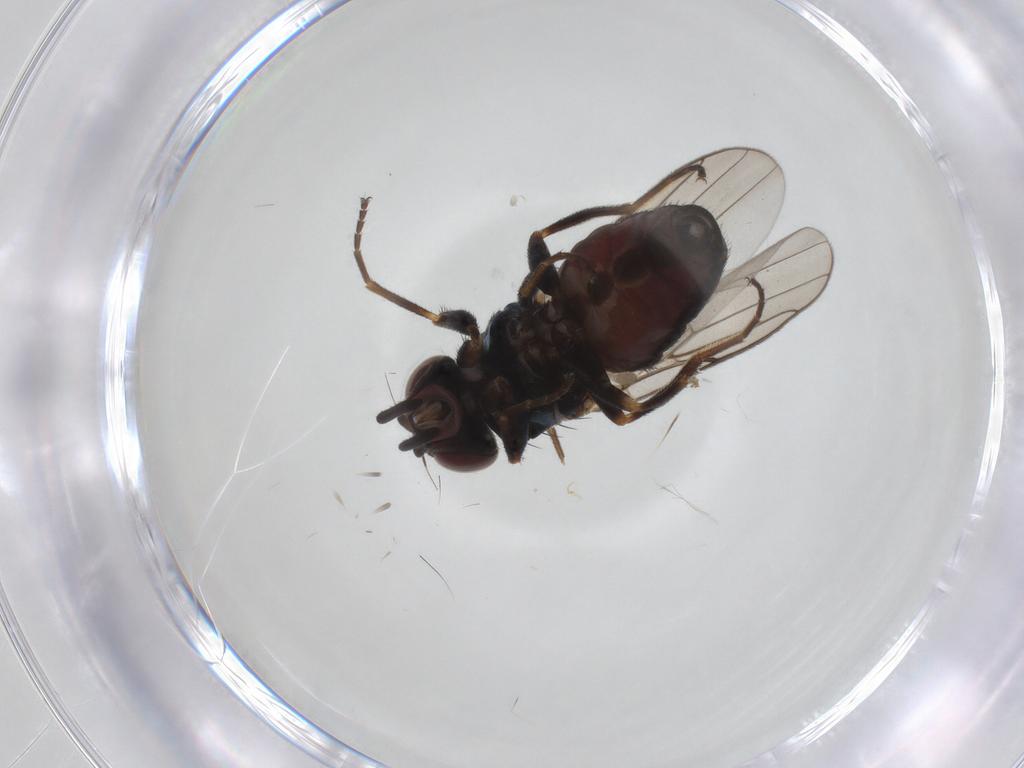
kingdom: Animalia
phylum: Arthropoda
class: Insecta
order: Diptera
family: Chloropidae
